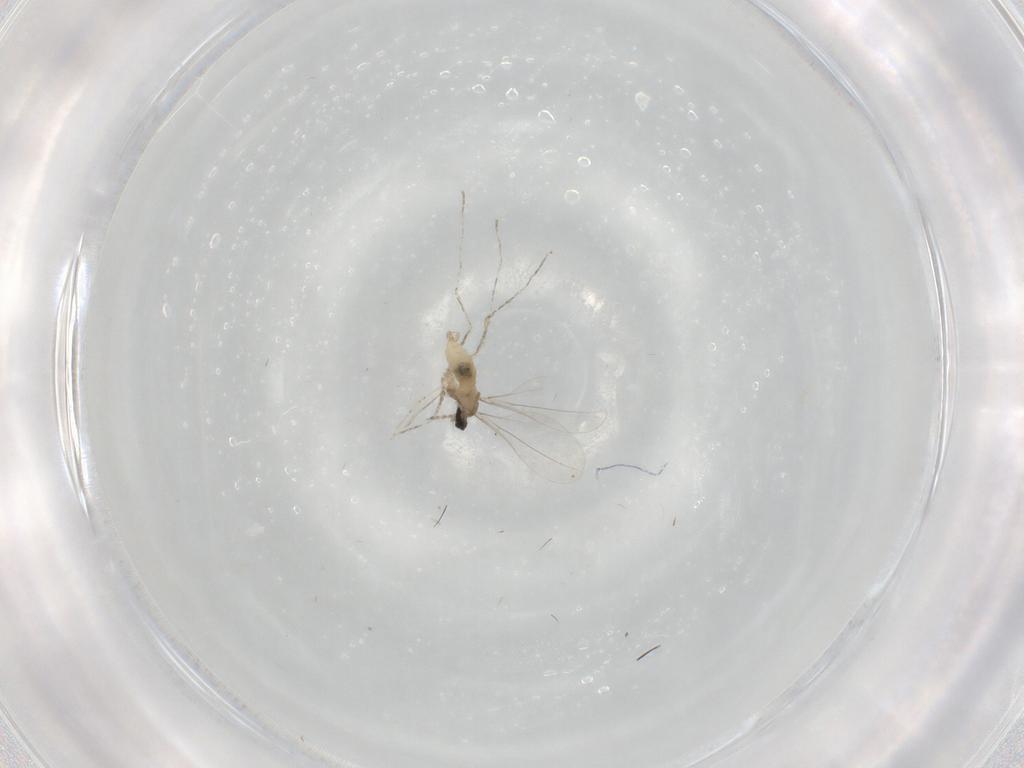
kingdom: Animalia
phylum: Arthropoda
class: Insecta
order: Diptera
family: Cecidomyiidae
